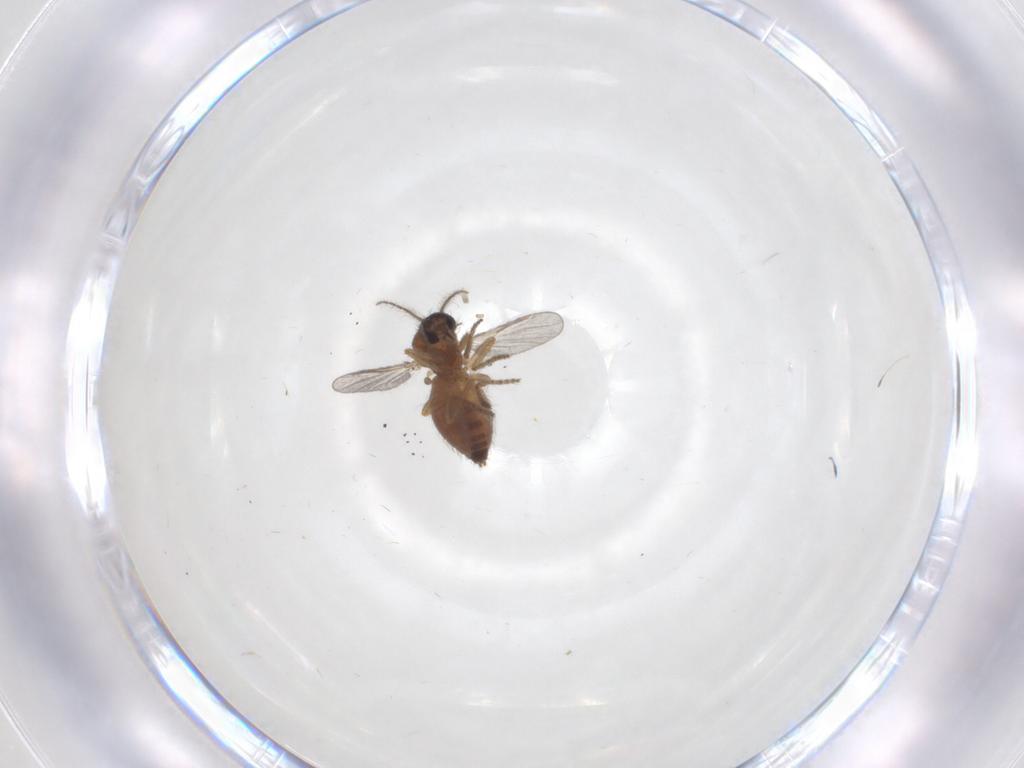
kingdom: Animalia
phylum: Arthropoda
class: Insecta
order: Diptera
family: Ceratopogonidae
